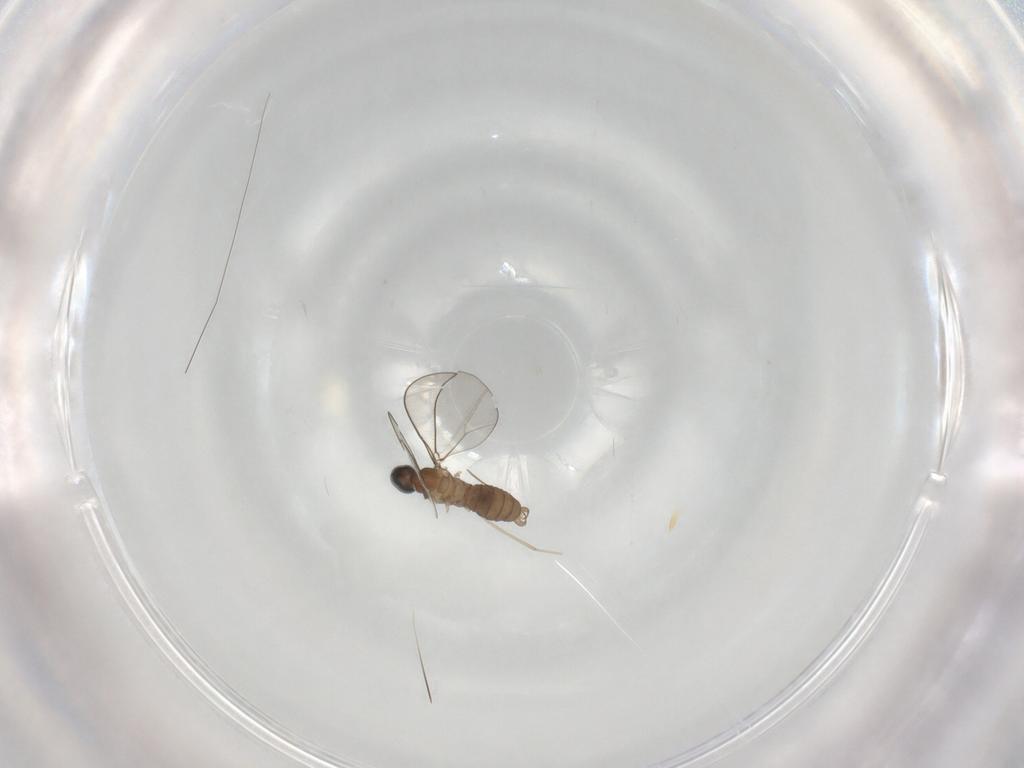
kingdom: Animalia
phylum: Arthropoda
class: Insecta
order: Diptera
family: Cecidomyiidae
